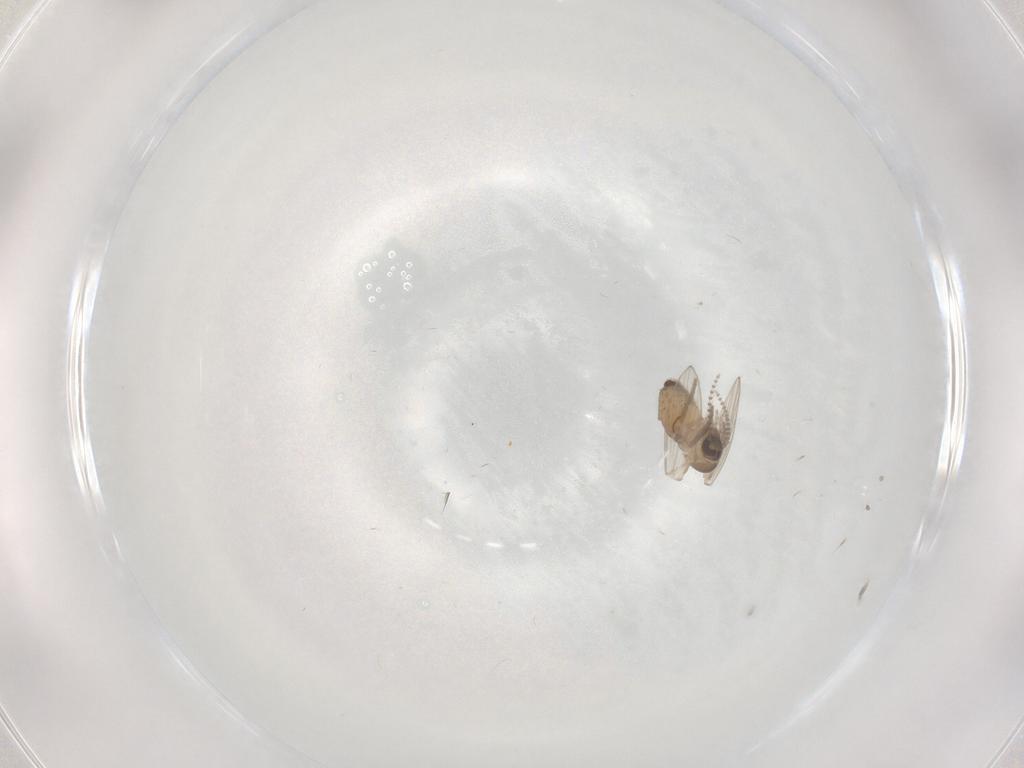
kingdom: Animalia
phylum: Arthropoda
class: Insecta
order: Diptera
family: Psychodidae
